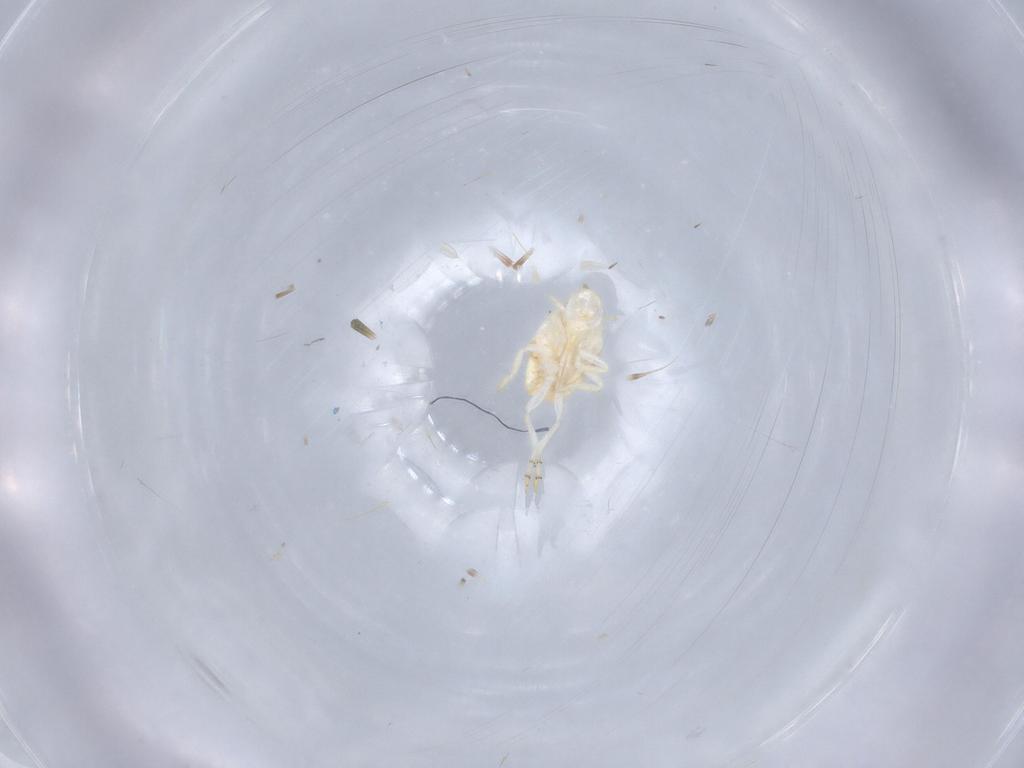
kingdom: Animalia
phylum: Arthropoda
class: Insecta
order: Hemiptera
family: Flatidae
